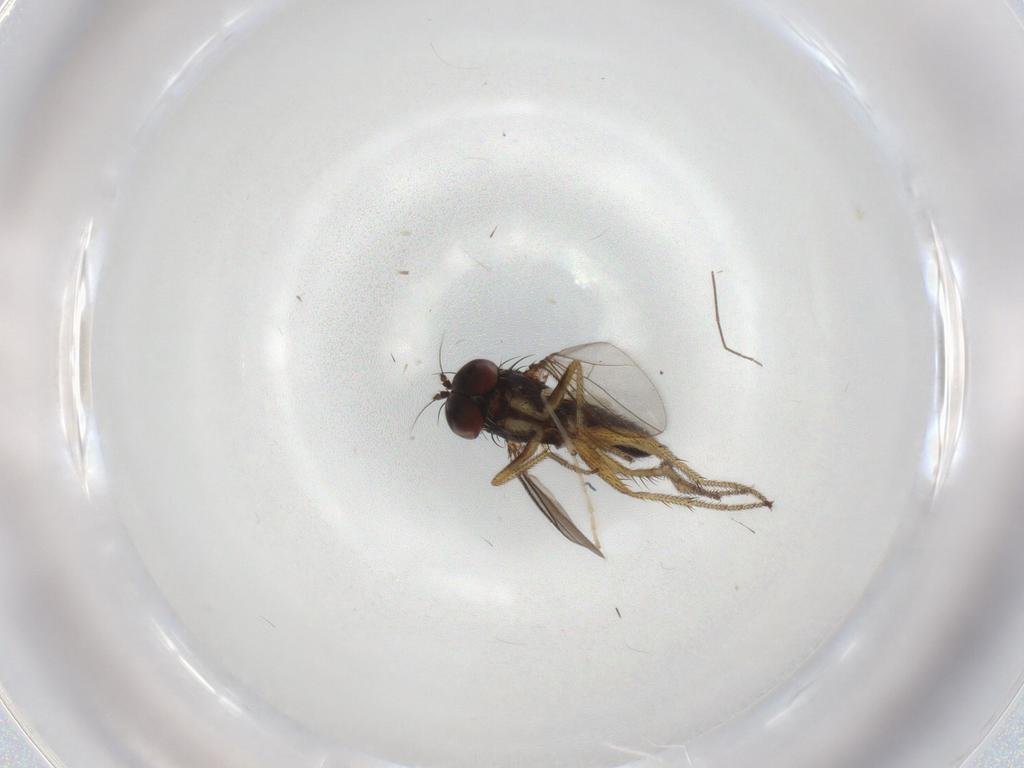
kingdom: Animalia
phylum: Arthropoda
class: Insecta
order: Diptera
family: Dolichopodidae
